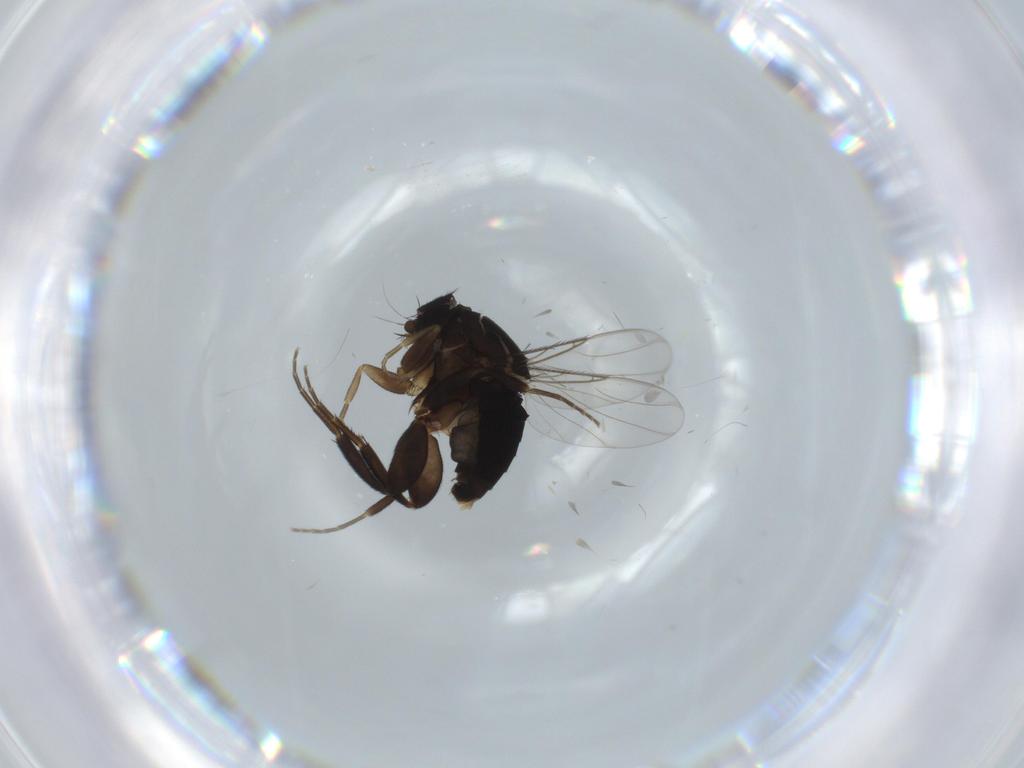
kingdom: Animalia
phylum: Arthropoda
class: Insecta
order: Diptera
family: Phoridae
